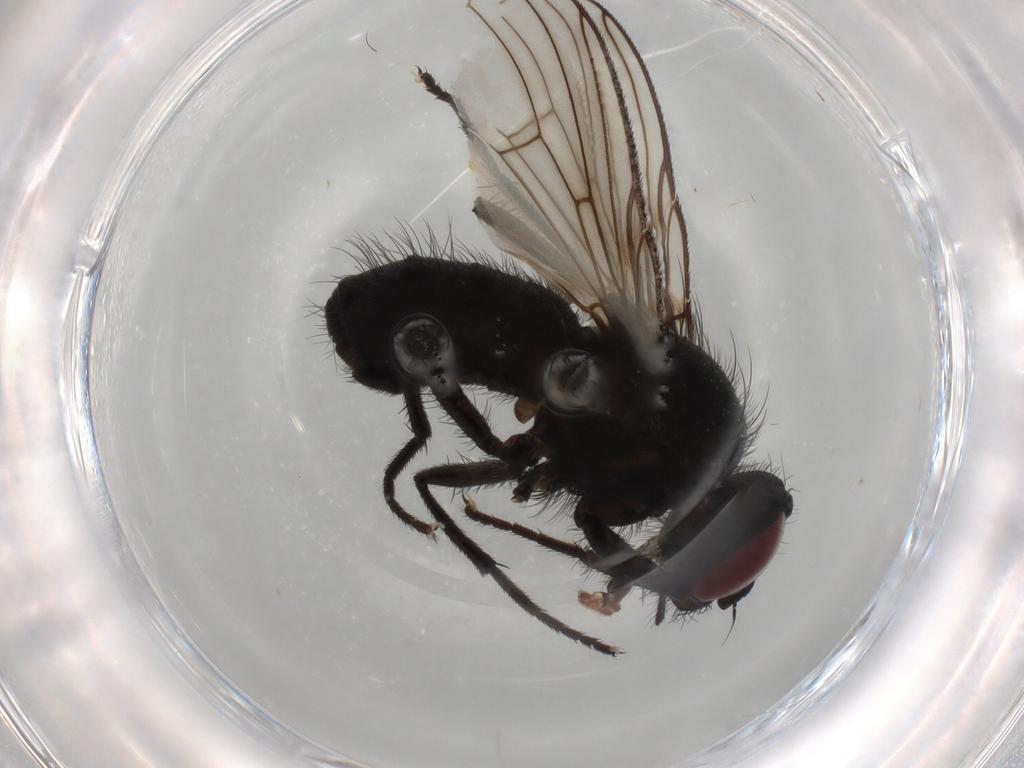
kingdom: Animalia
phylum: Arthropoda
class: Insecta
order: Diptera
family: Muscidae
